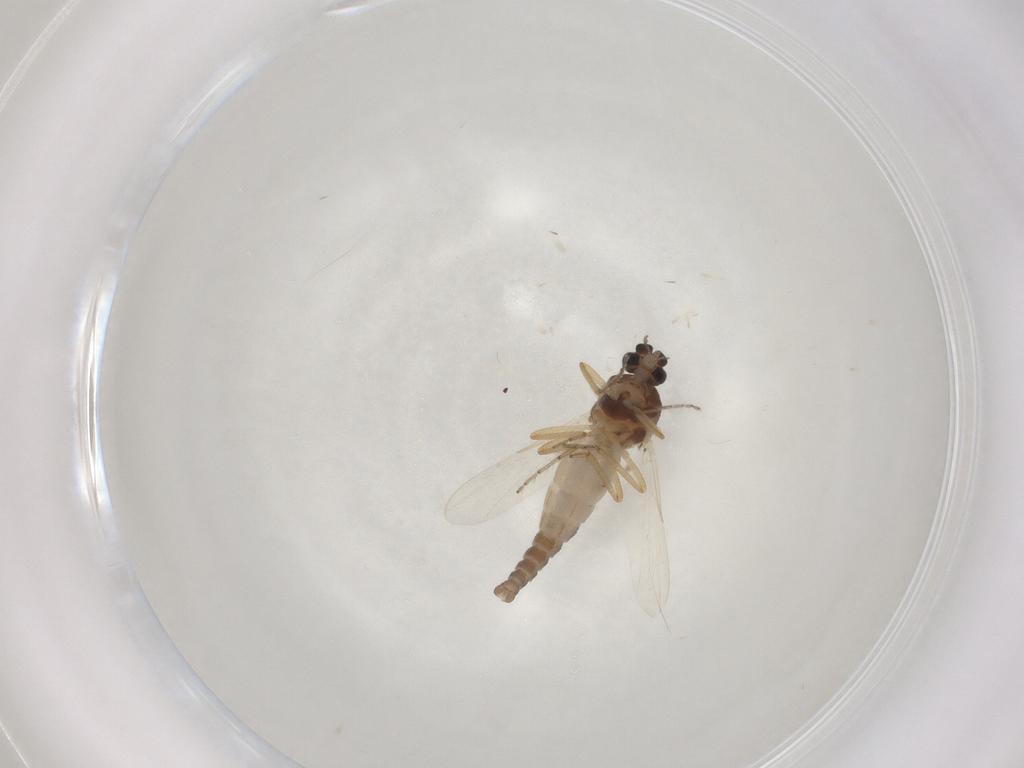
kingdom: Animalia
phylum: Arthropoda
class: Insecta
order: Diptera
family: Ceratopogonidae
